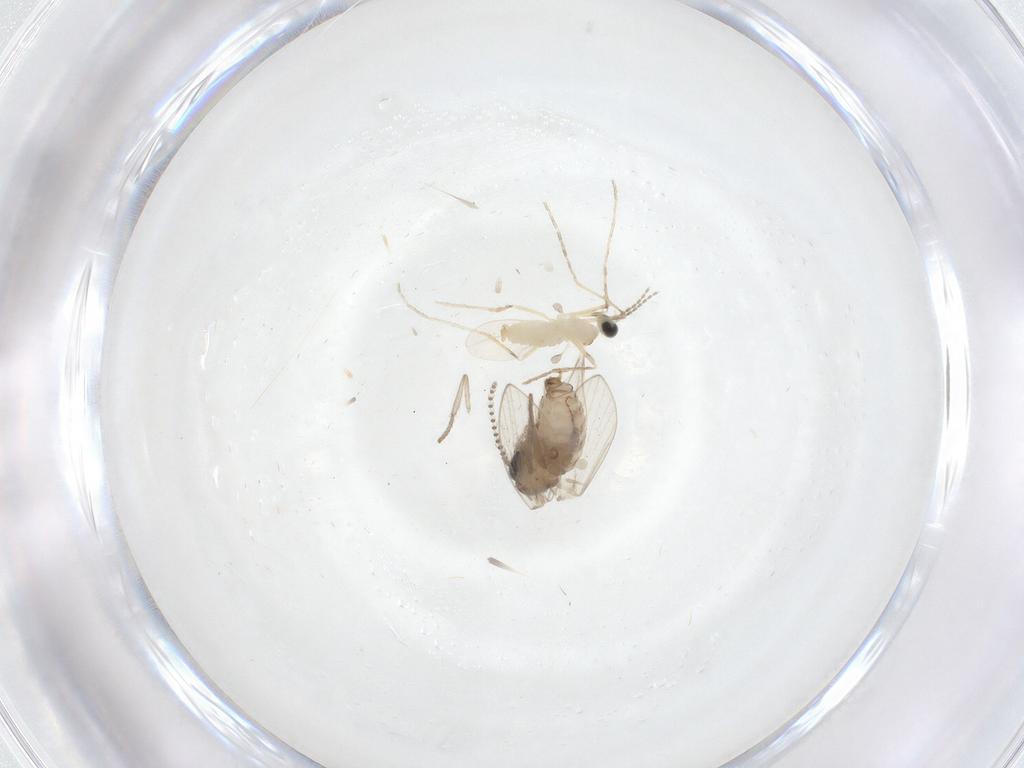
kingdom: Animalia
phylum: Arthropoda
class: Insecta
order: Diptera
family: Psychodidae
